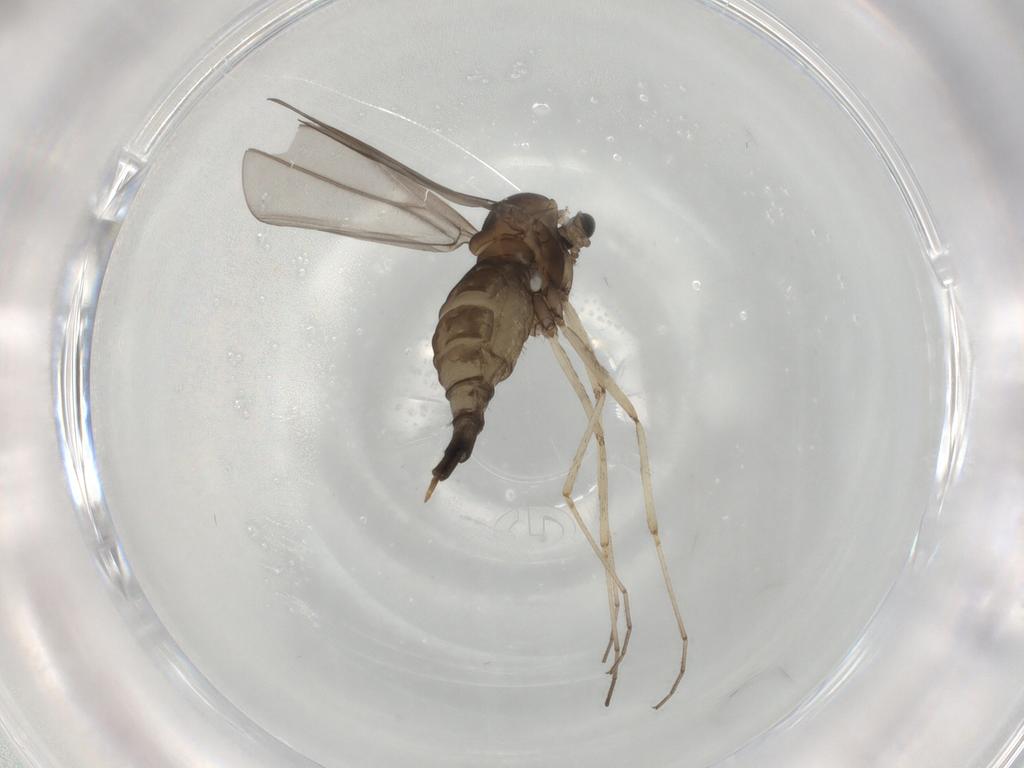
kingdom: Animalia
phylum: Arthropoda
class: Insecta
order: Diptera
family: Cecidomyiidae
